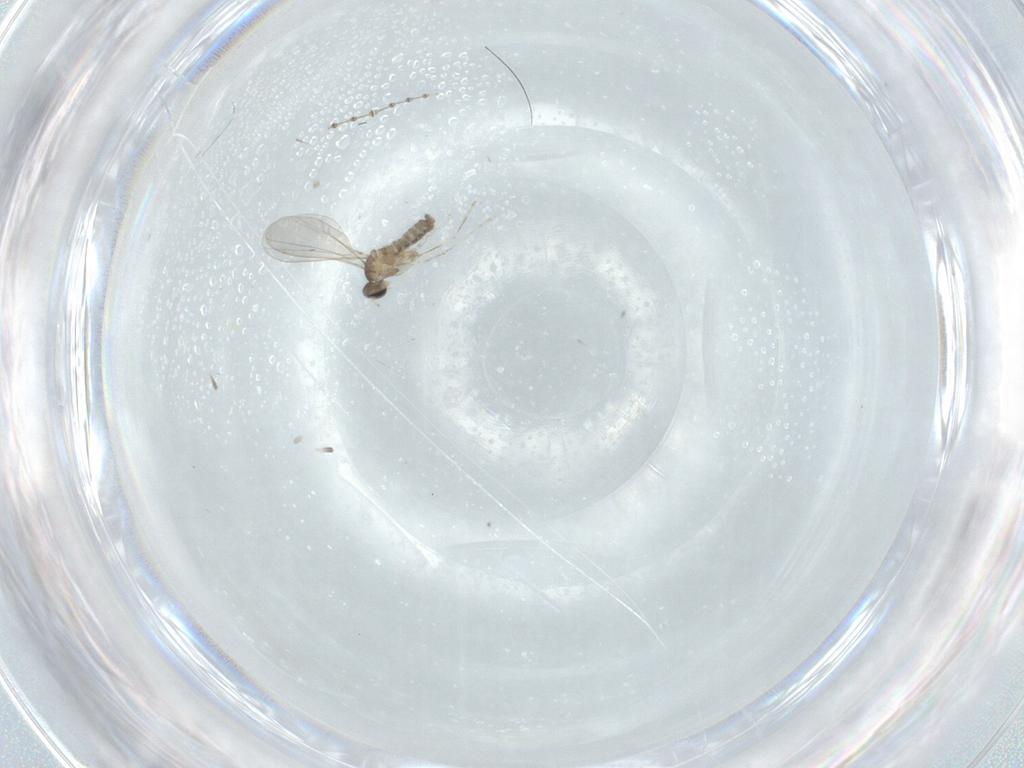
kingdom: Animalia
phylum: Arthropoda
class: Insecta
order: Diptera
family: Cecidomyiidae
